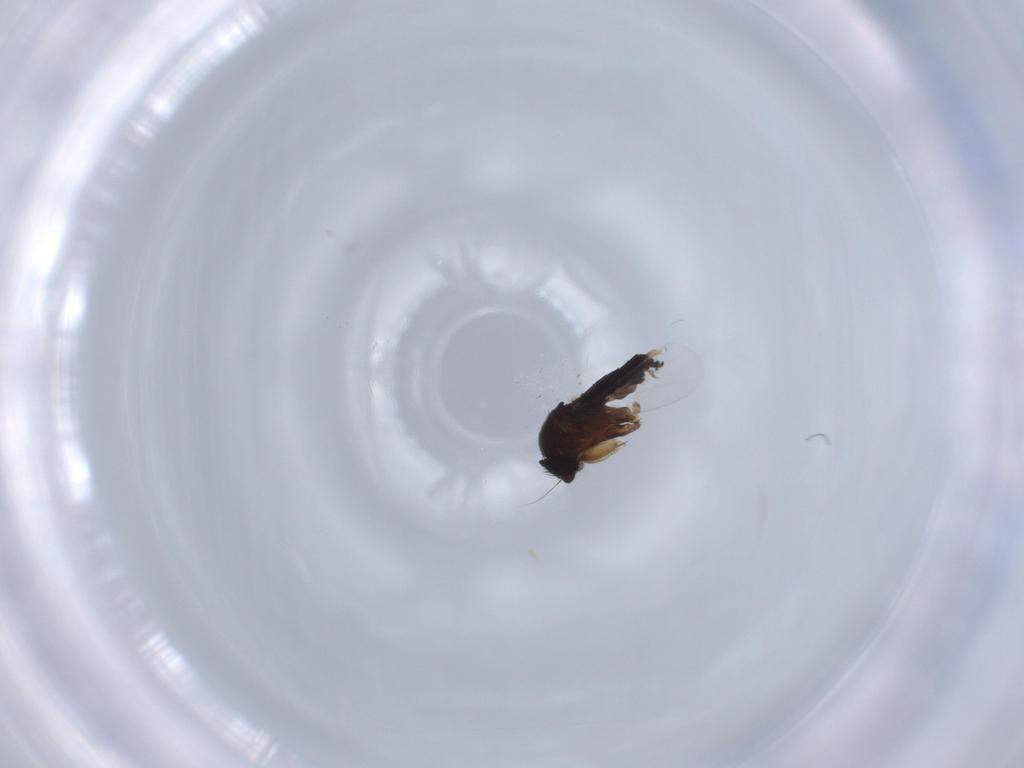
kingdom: Animalia
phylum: Arthropoda
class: Insecta
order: Diptera
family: Phoridae
